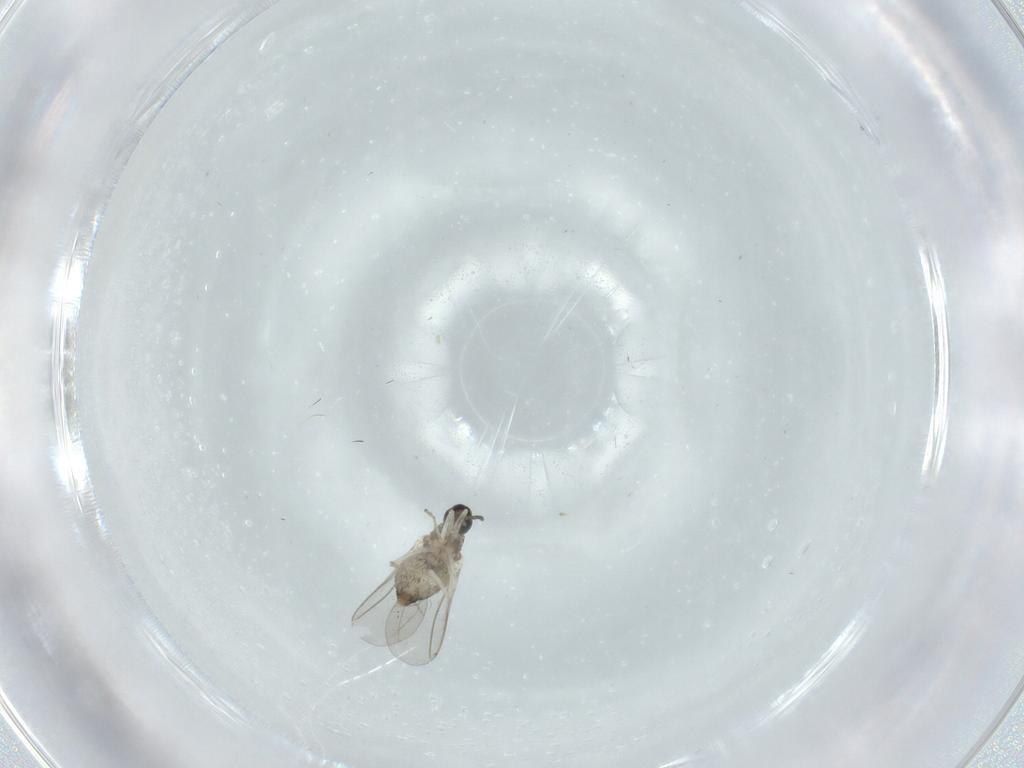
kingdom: Animalia
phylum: Arthropoda
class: Insecta
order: Diptera
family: Cecidomyiidae
